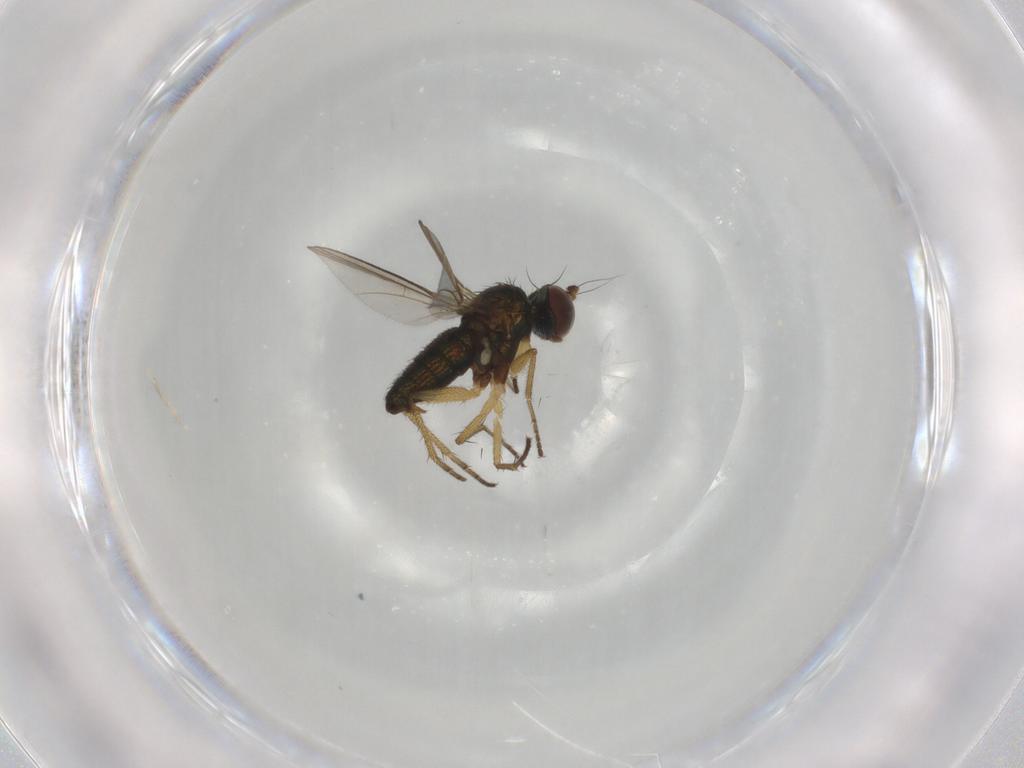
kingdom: Animalia
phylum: Arthropoda
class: Insecta
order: Diptera
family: Dolichopodidae
